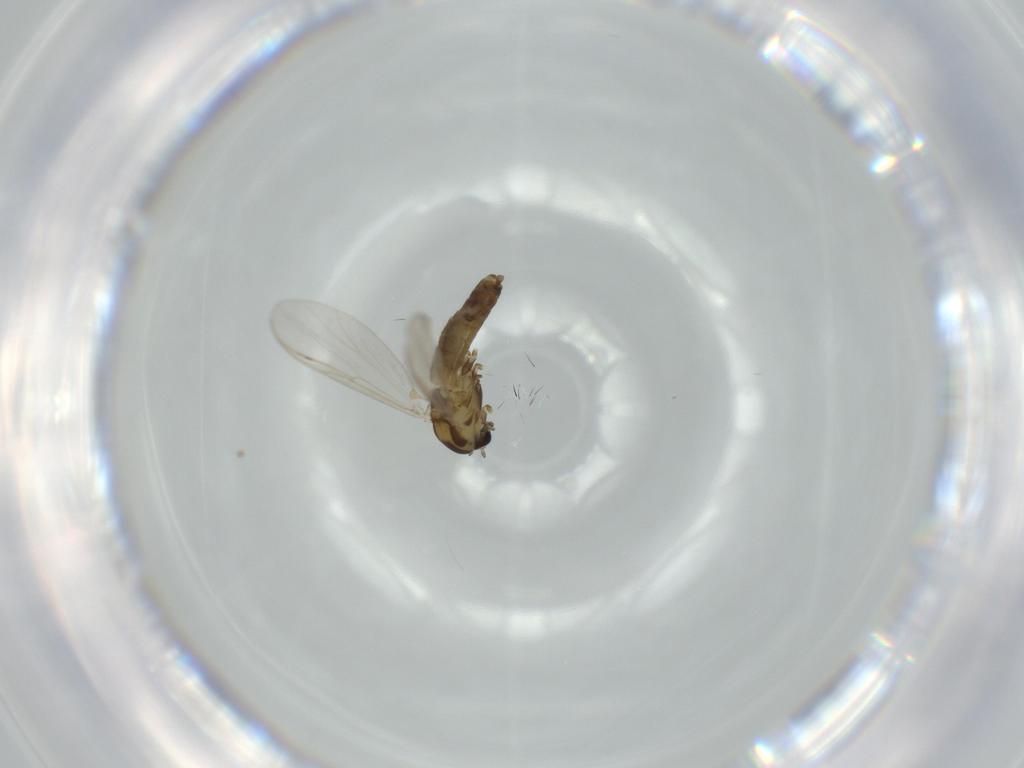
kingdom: Animalia
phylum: Arthropoda
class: Insecta
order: Diptera
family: Chironomidae
